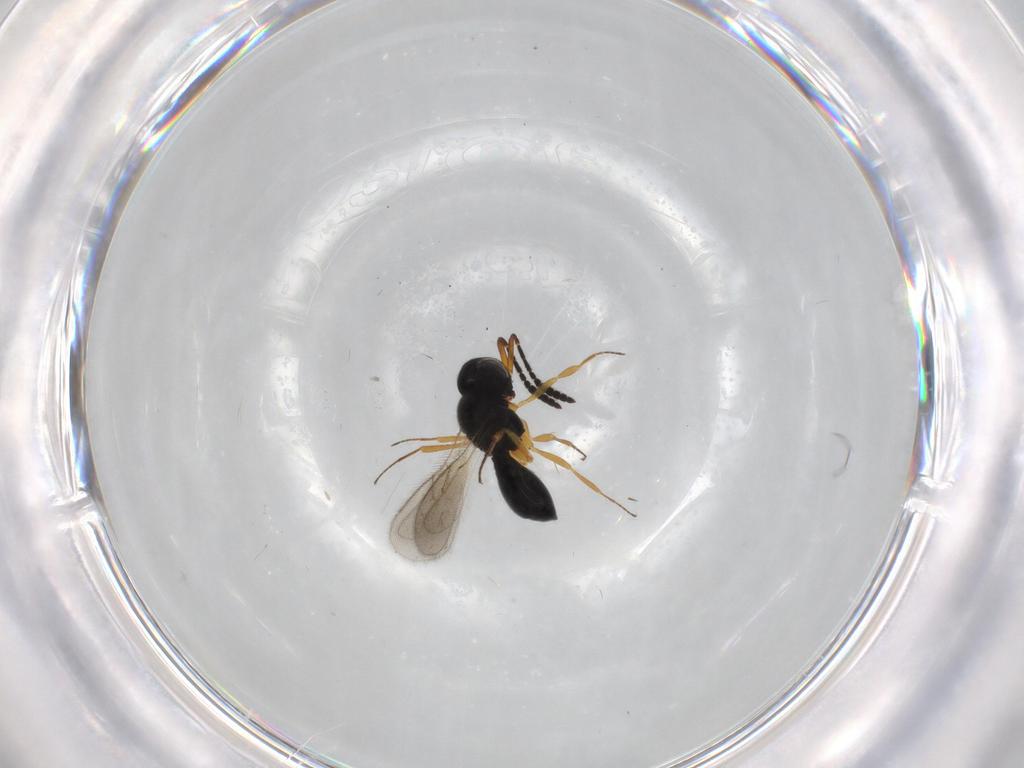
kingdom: Animalia
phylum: Arthropoda
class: Insecta
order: Hymenoptera
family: Scelionidae
